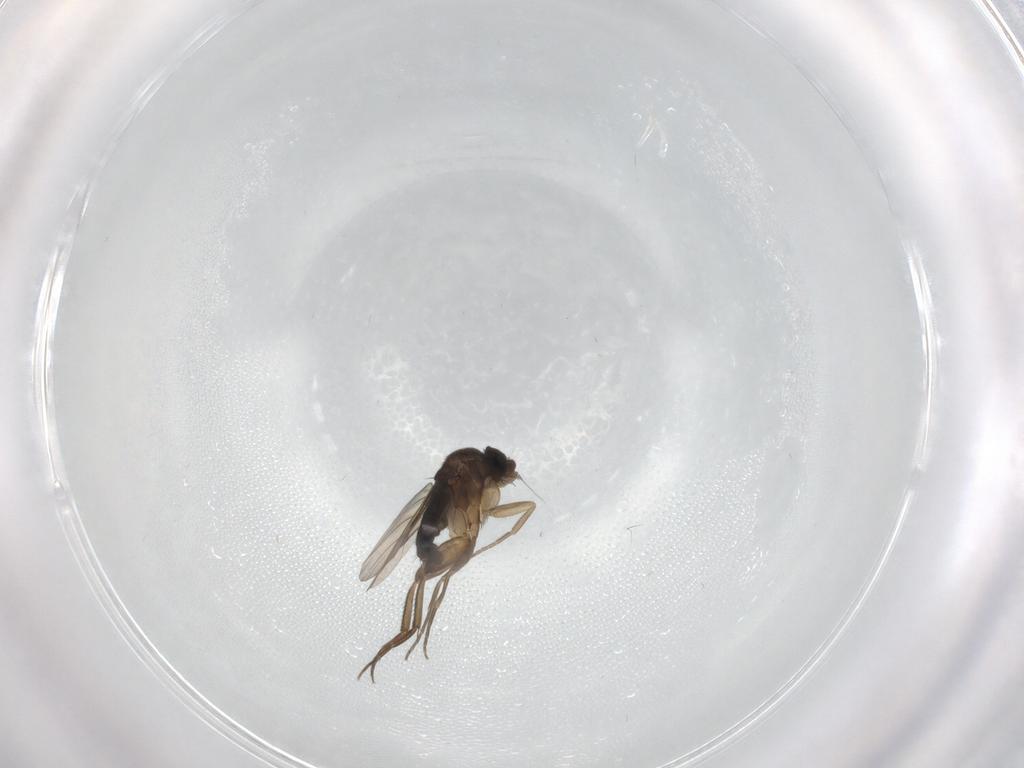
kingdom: Animalia
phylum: Arthropoda
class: Insecta
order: Diptera
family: Phoridae
